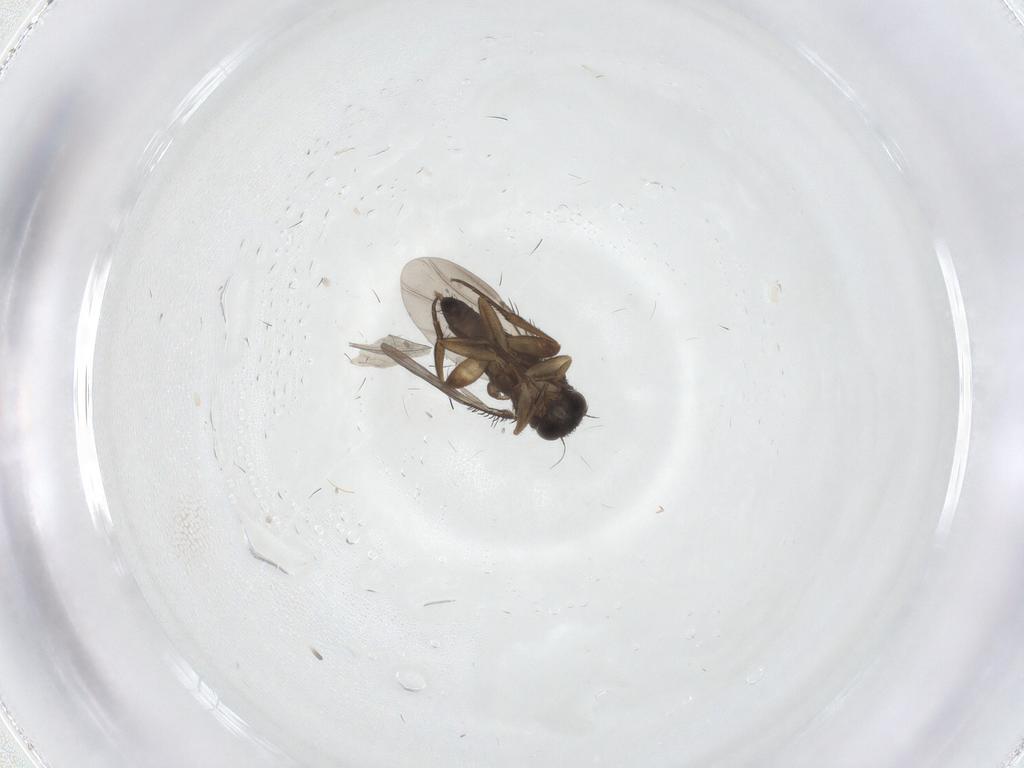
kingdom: Animalia
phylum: Arthropoda
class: Insecta
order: Diptera
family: Phoridae
